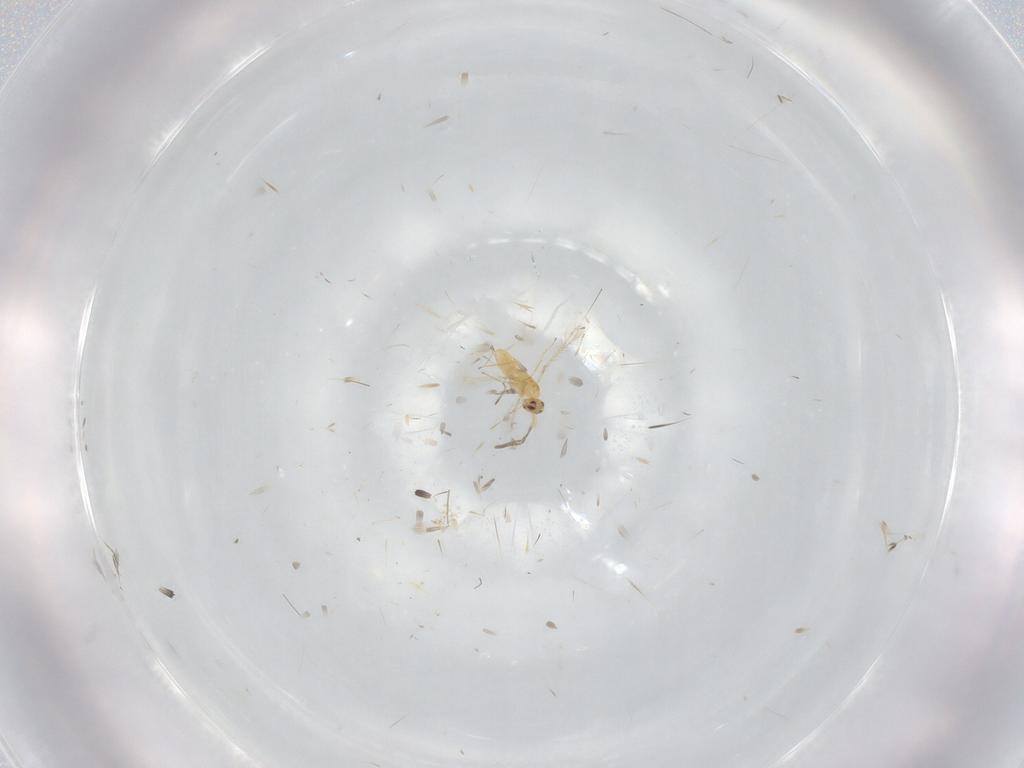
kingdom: Animalia
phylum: Arthropoda
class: Insecta
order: Hymenoptera
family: Mymaridae
